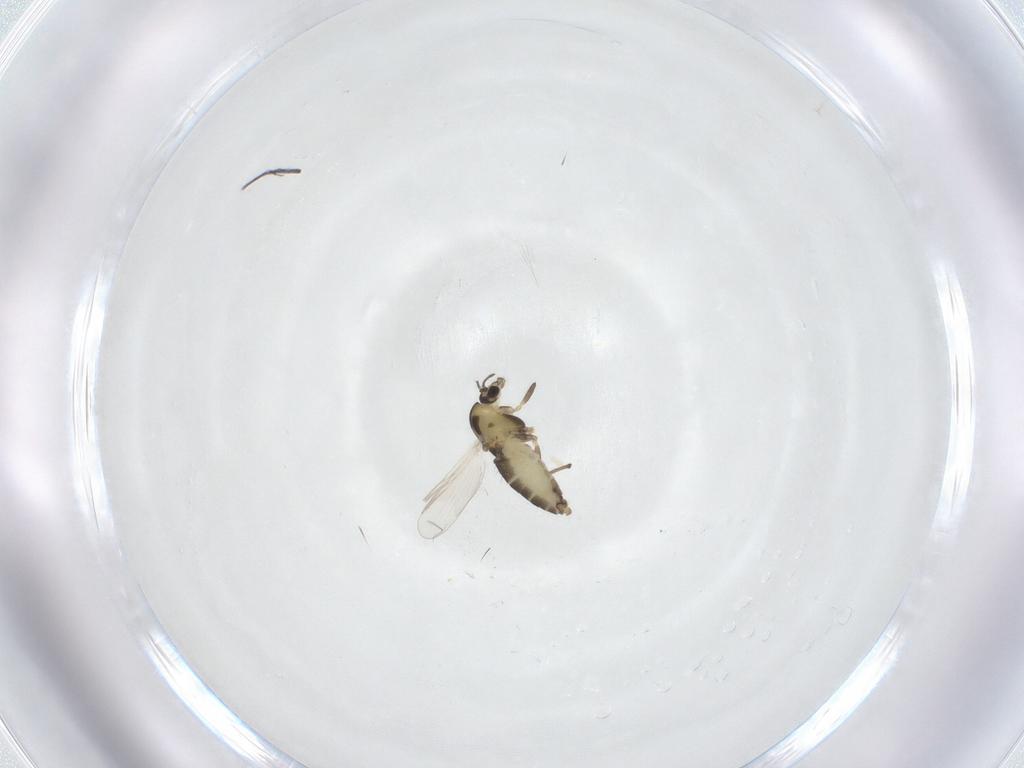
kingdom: Animalia
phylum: Arthropoda
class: Insecta
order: Diptera
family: Chironomidae
